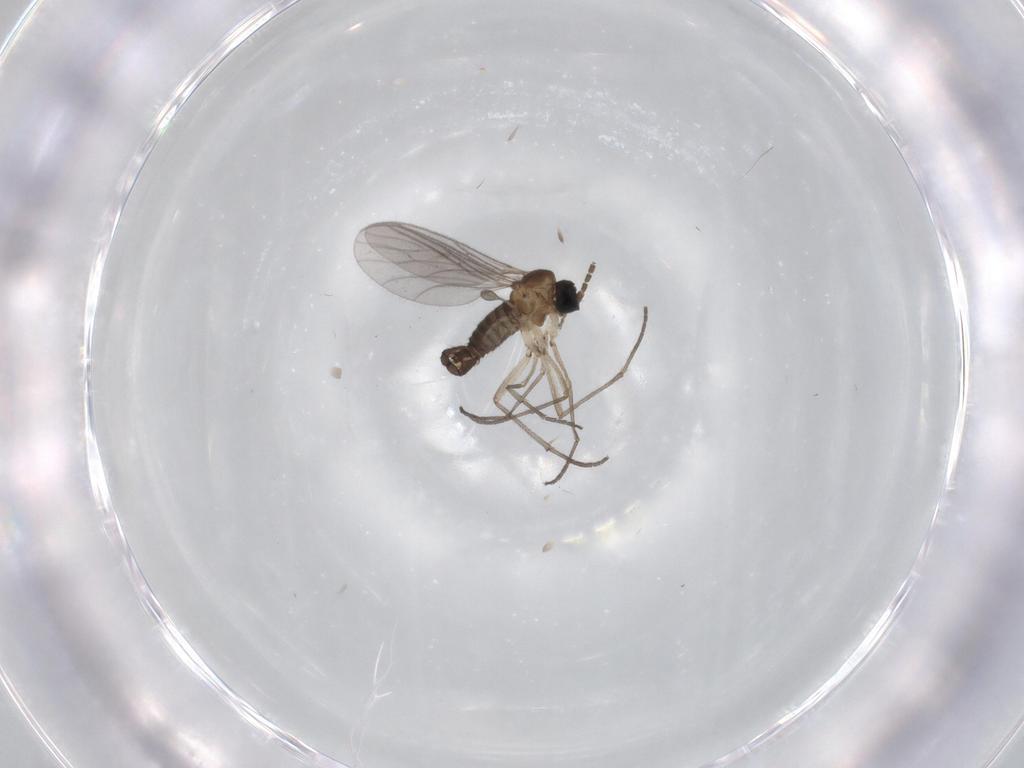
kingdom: Animalia
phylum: Arthropoda
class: Insecta
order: Diptera
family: Sciaridae
